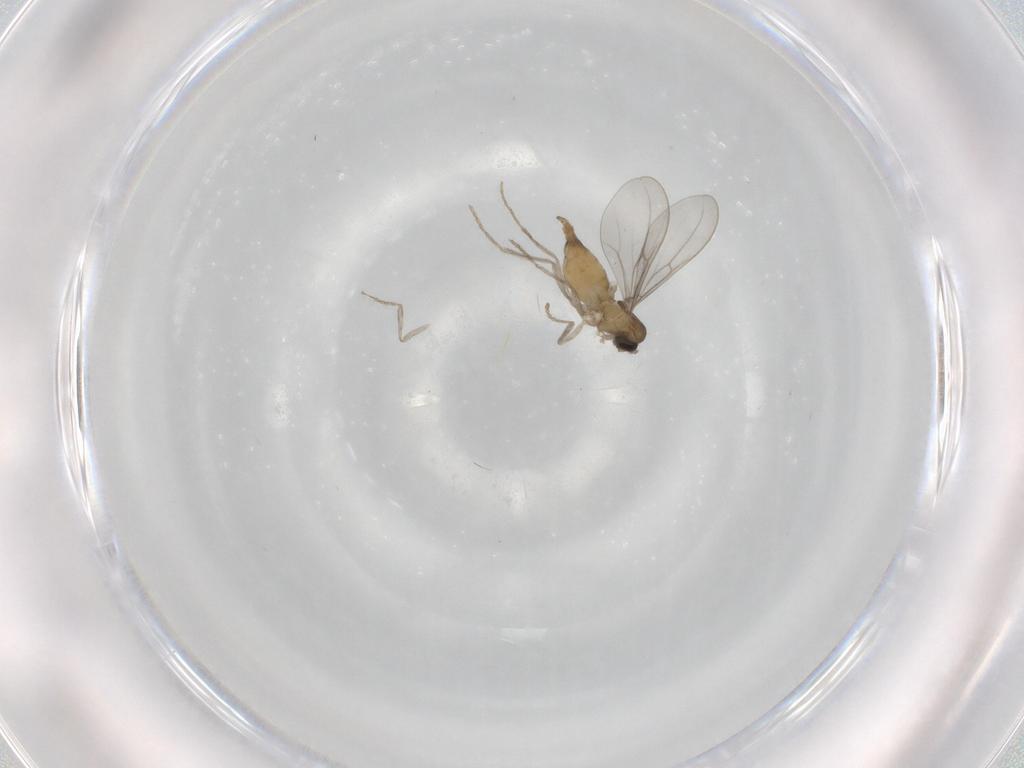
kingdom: Animalia
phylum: Arthropoda
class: Insecta
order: Diptera
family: Cecidomyiidae
